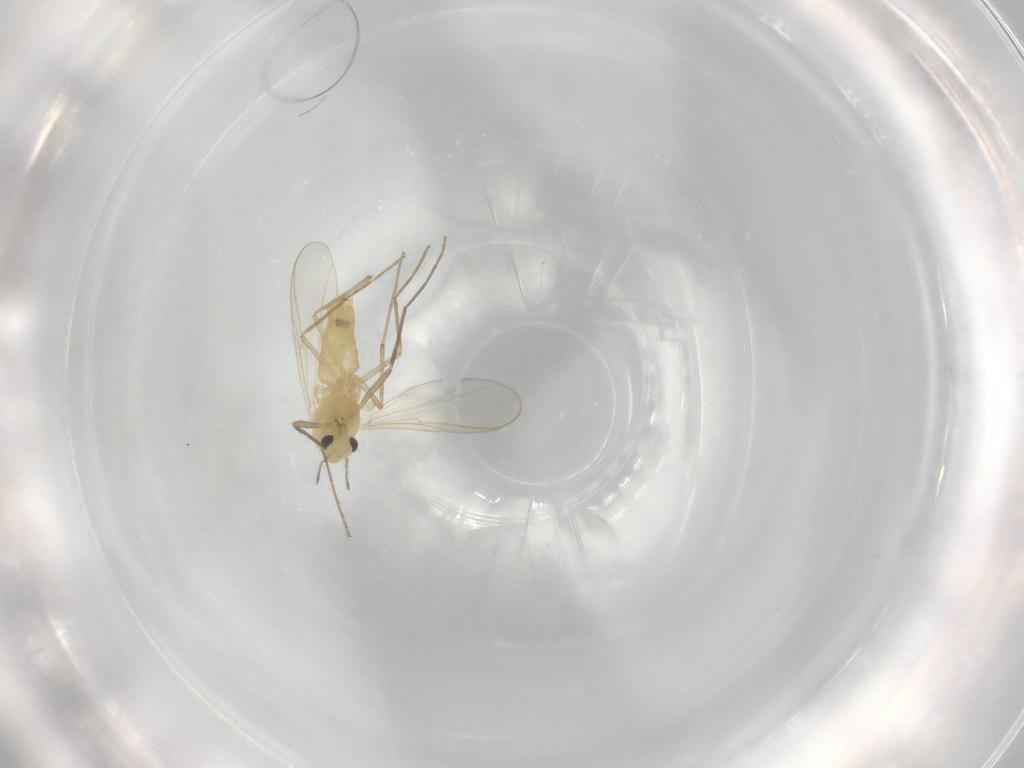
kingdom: Animalia
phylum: Arthropoda
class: Insecta
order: Diptera
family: Chironomidae
